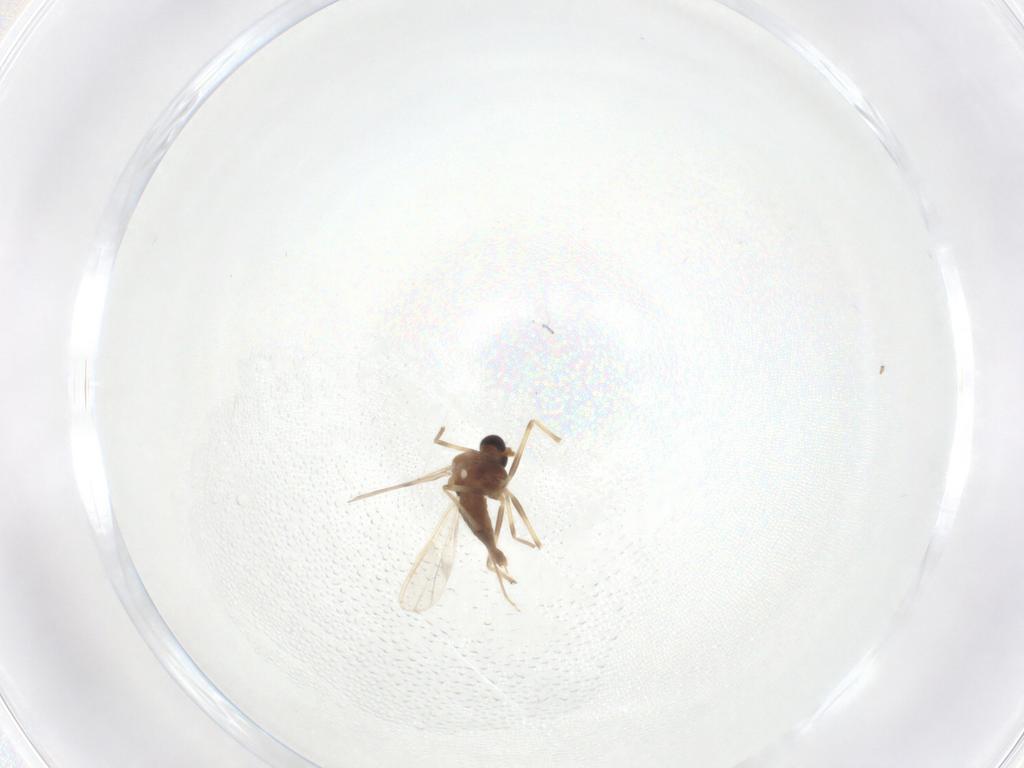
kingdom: Animalia
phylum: Arthropoda
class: Insecta
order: Diptera
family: Chironomidae
